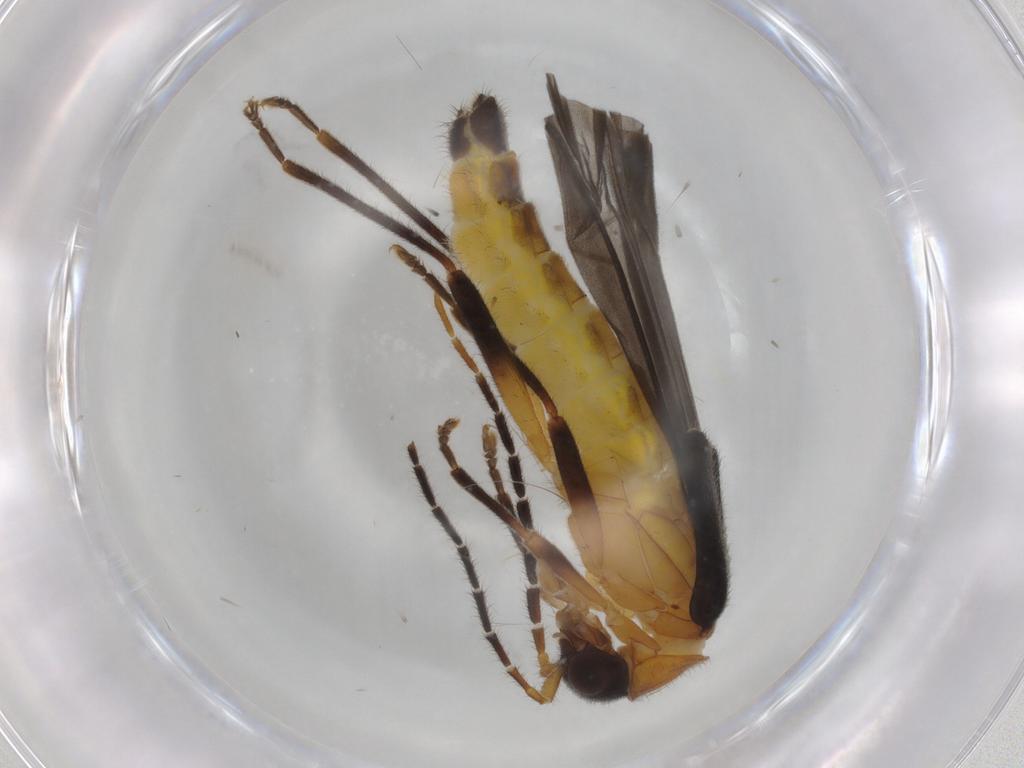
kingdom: Animalia
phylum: Arthropoda
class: Insecta
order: Coleoptera
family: Cantharidae
